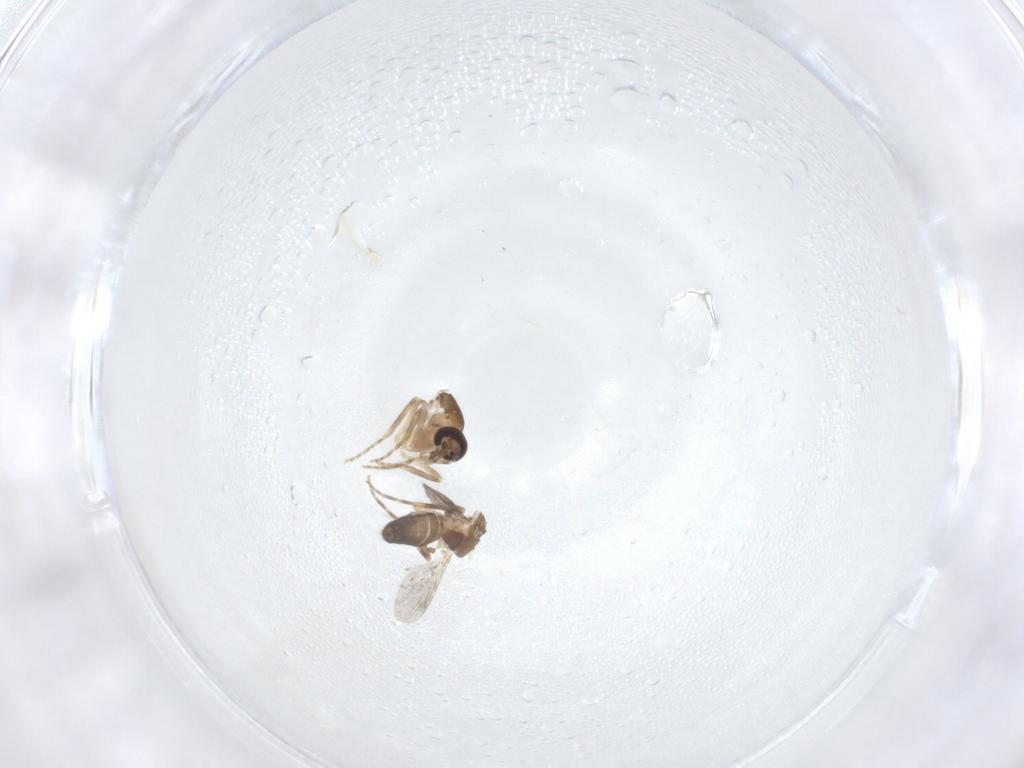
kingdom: Animalia
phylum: Arthropoda
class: Insecta
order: Diptera
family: Ceratopogonidae
